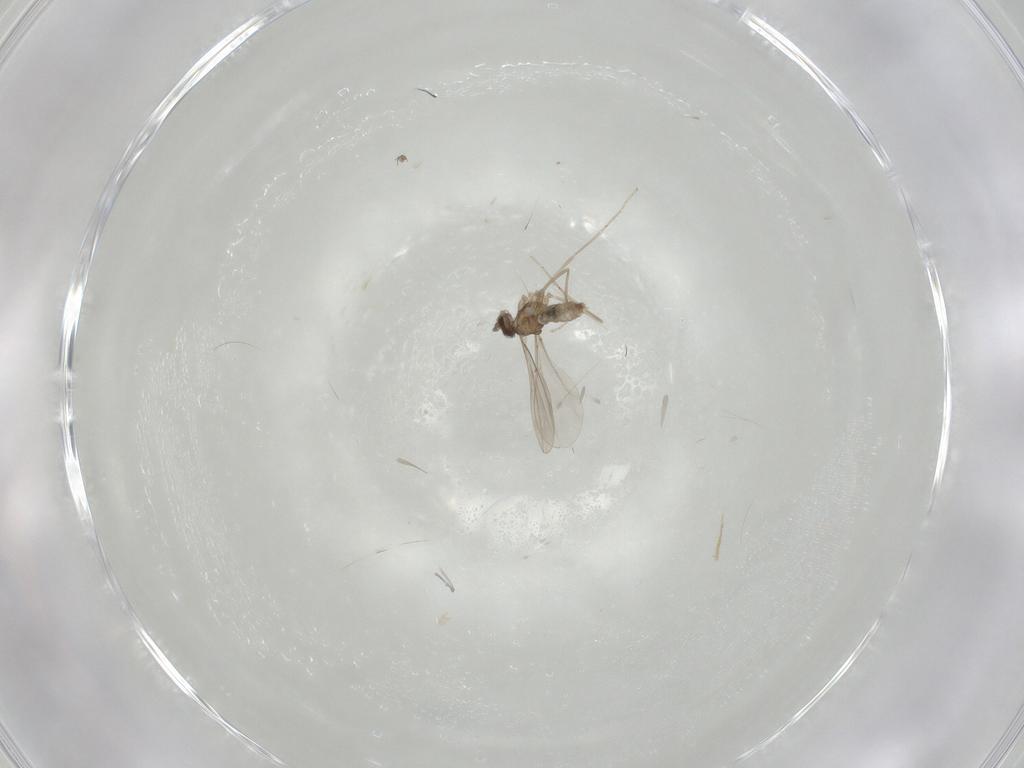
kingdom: Animalia
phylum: Arthropoda
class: Insecta
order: Diptera
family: Cecidomyiidae
